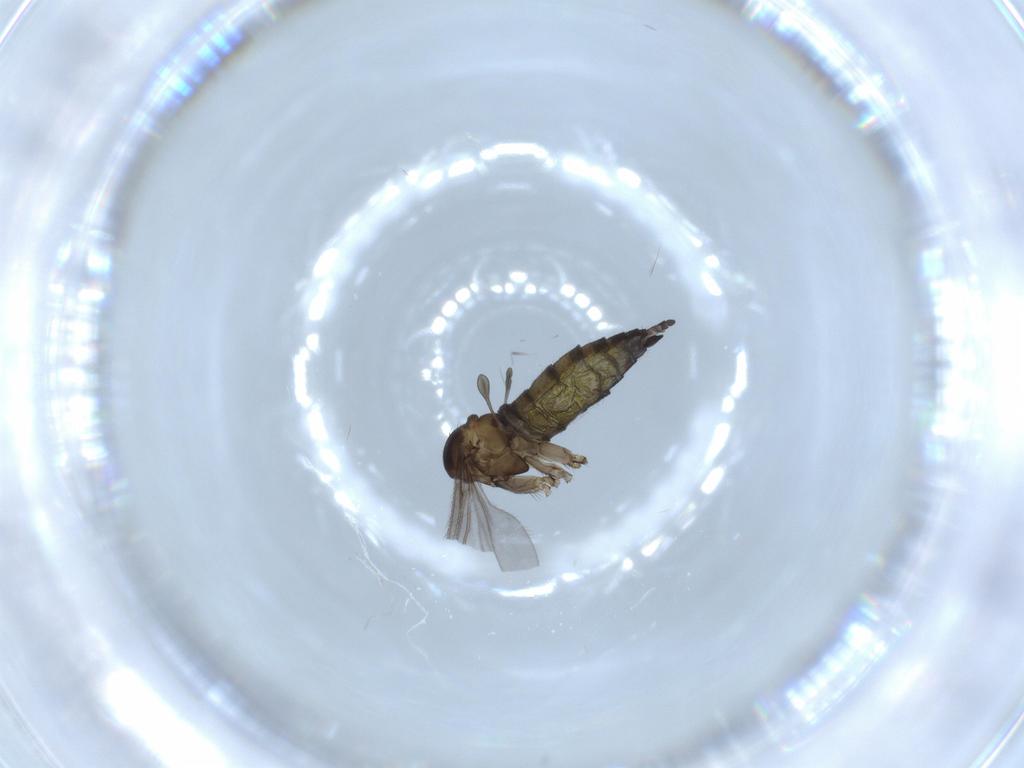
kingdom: Animalia
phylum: Arthropoda
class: Insecta
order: Diptera
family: Sciaridae
